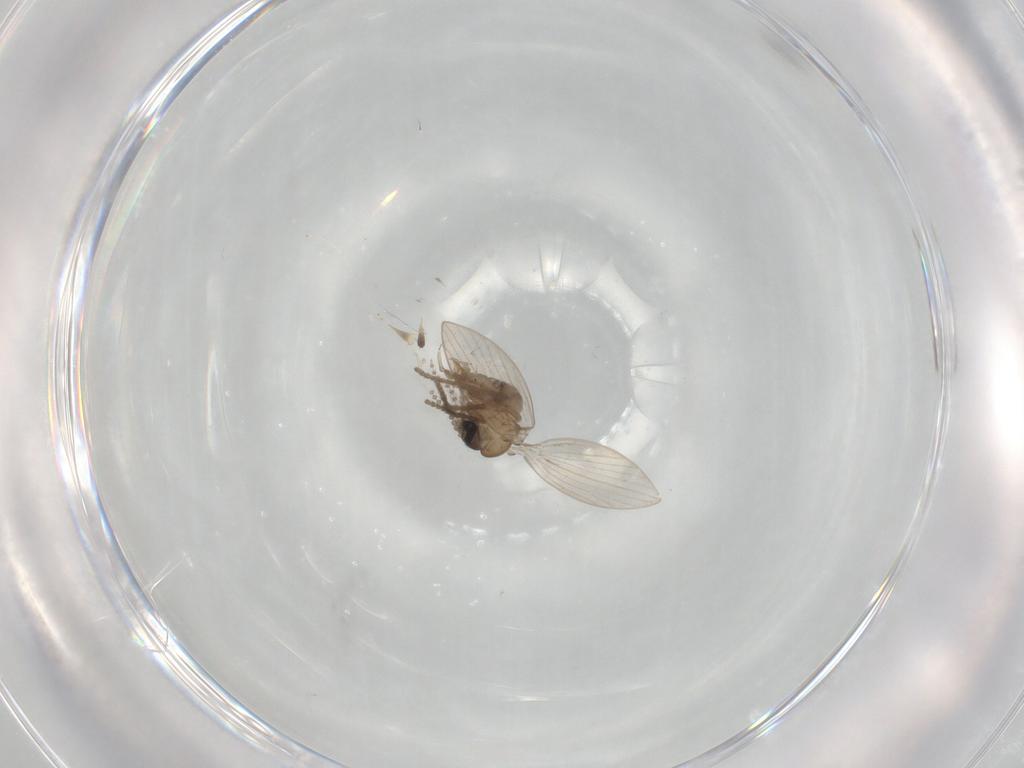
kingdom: Animalia
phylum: Arthropoda
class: Insecta
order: Diptera
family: Psychodidae
